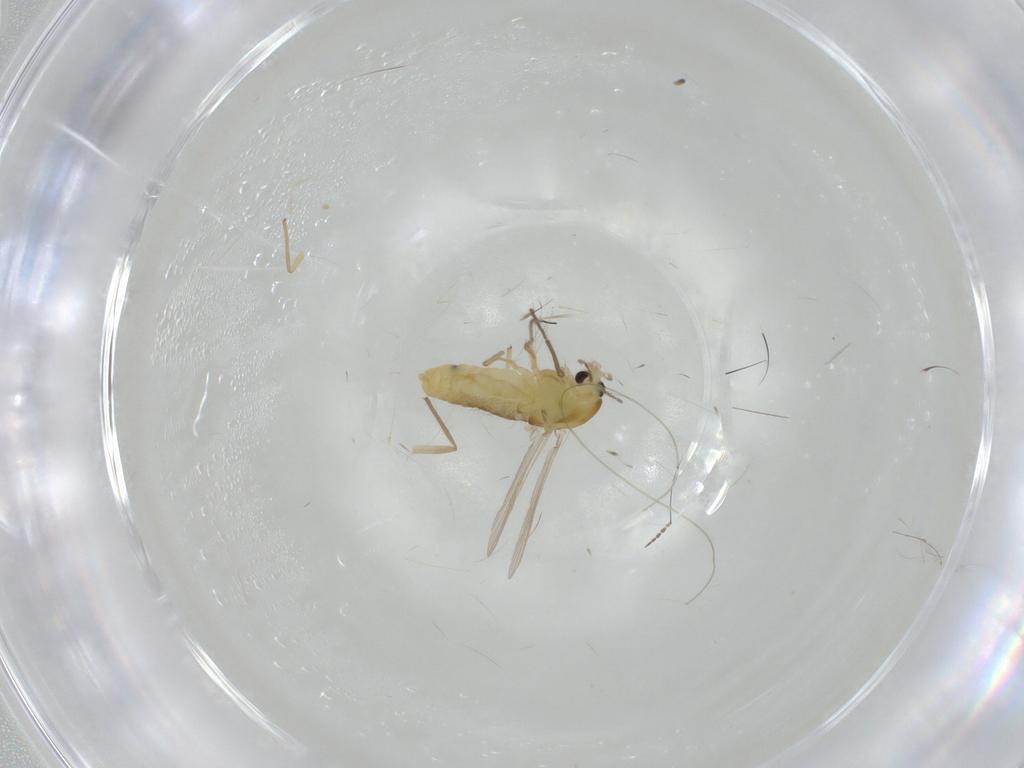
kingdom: Animalia
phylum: Arthropoda
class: Insecta
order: Diptera
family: Chironomidae
